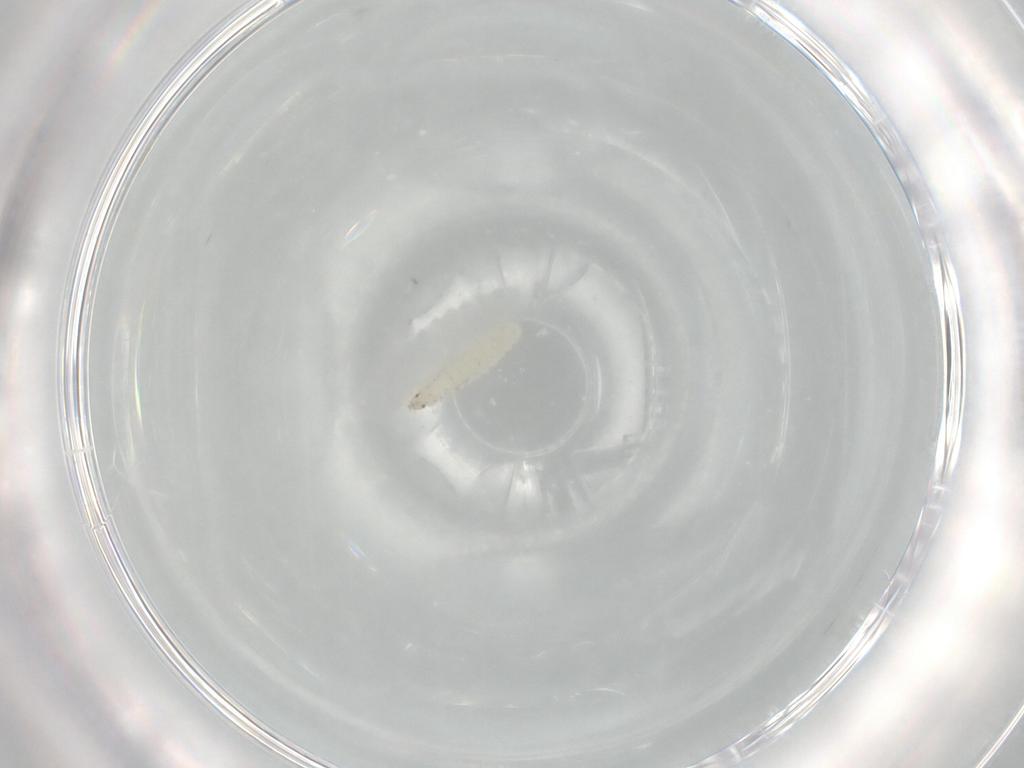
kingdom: Animalia
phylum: Arthropoda
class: Insecta
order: Diptera
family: Stratiomyidae
